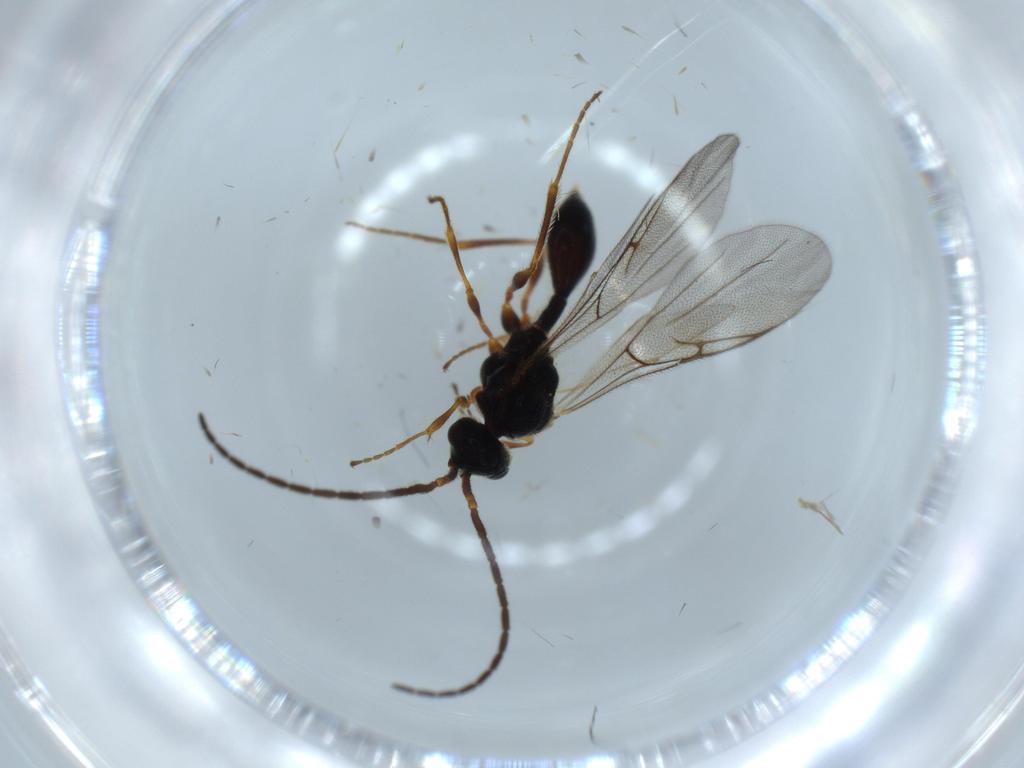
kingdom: Animalia
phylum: Arthropoda
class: Insecta
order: Hymenoptera
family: Diapriidae
